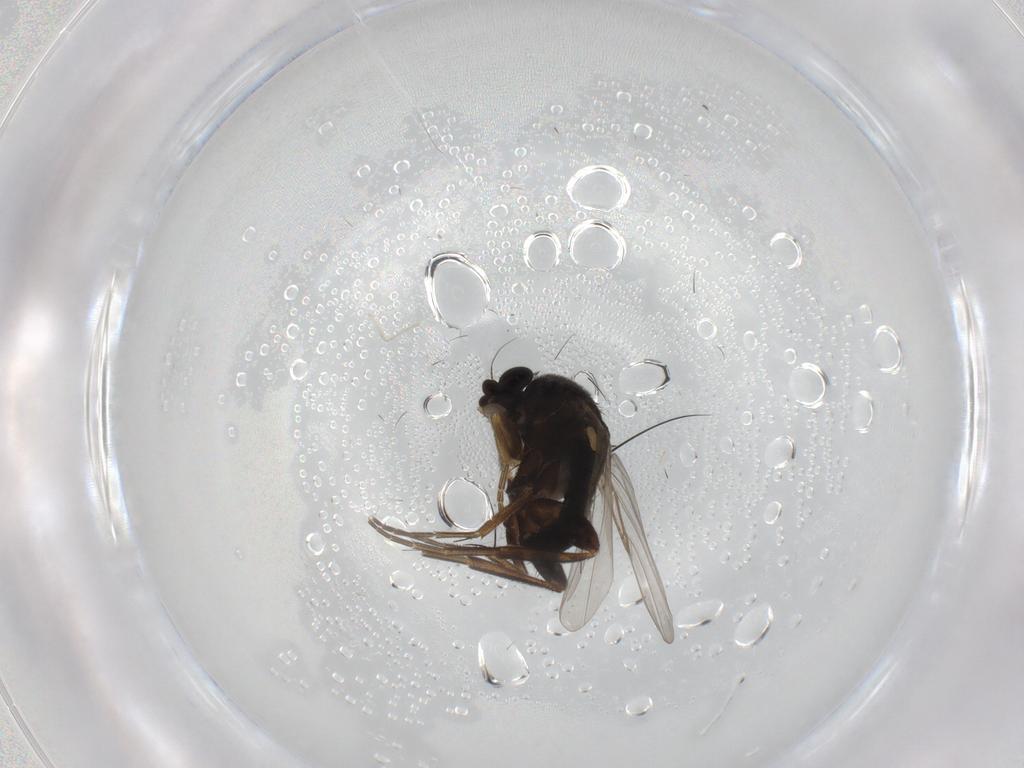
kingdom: Animalia
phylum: Arthropoda
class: Insecta
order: Diptera
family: Phoridae
